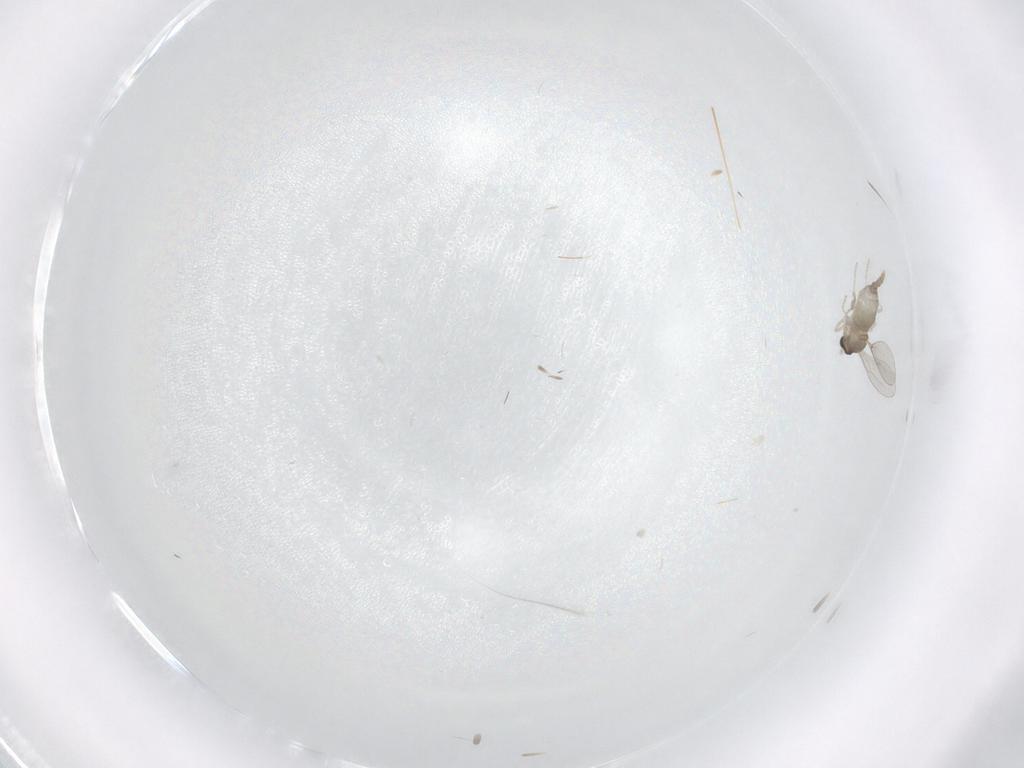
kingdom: Animalia
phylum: Arthropoda
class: Insecta
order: Diptera
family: Cecidomyiidae
